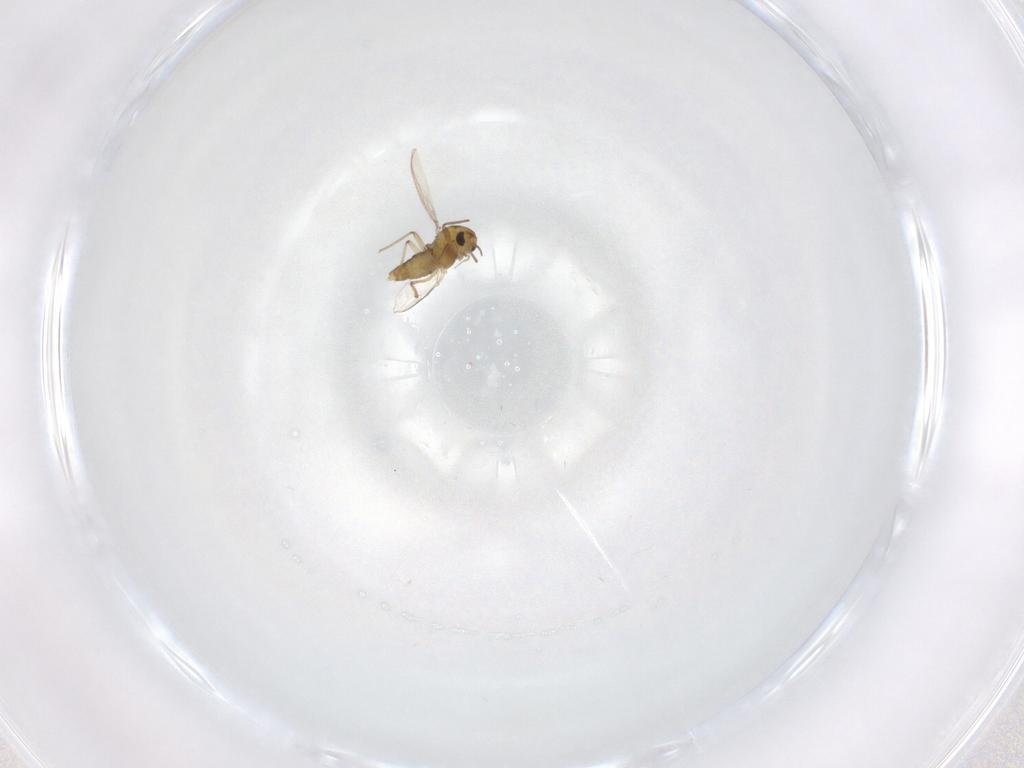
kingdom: Animalia
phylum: Arthropoda
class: Insecta
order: Diptera
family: Chironomidae
